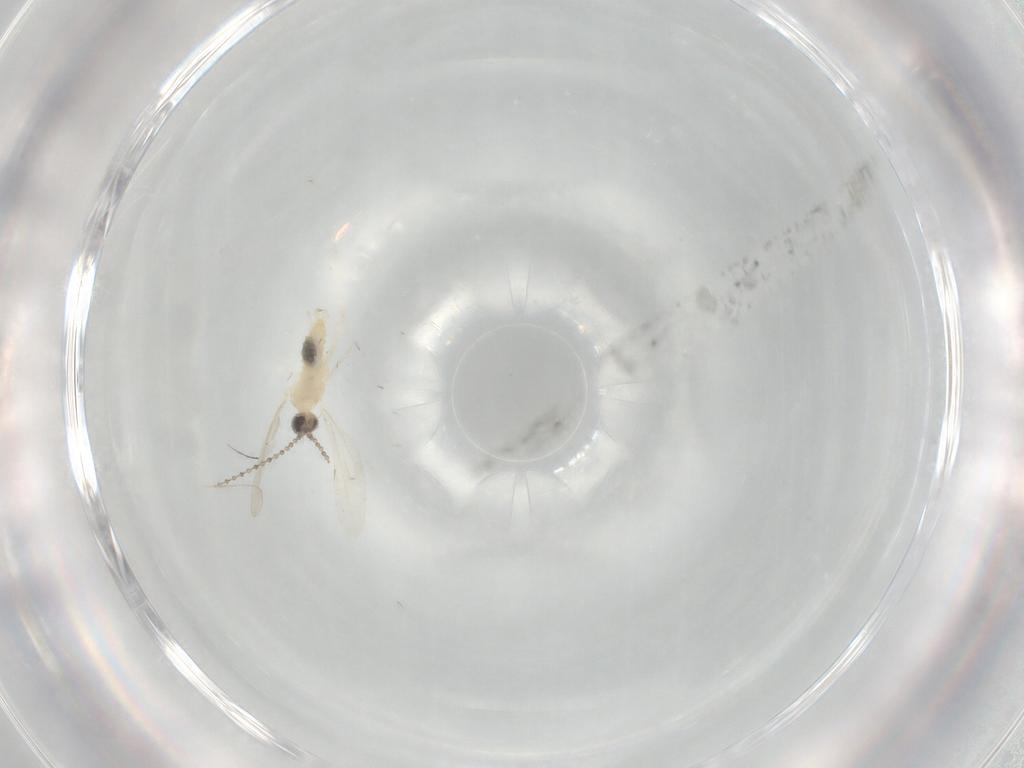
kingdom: Animalia
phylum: Arthropoda
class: Insecta
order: Diptera
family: Cecidomyiidae
